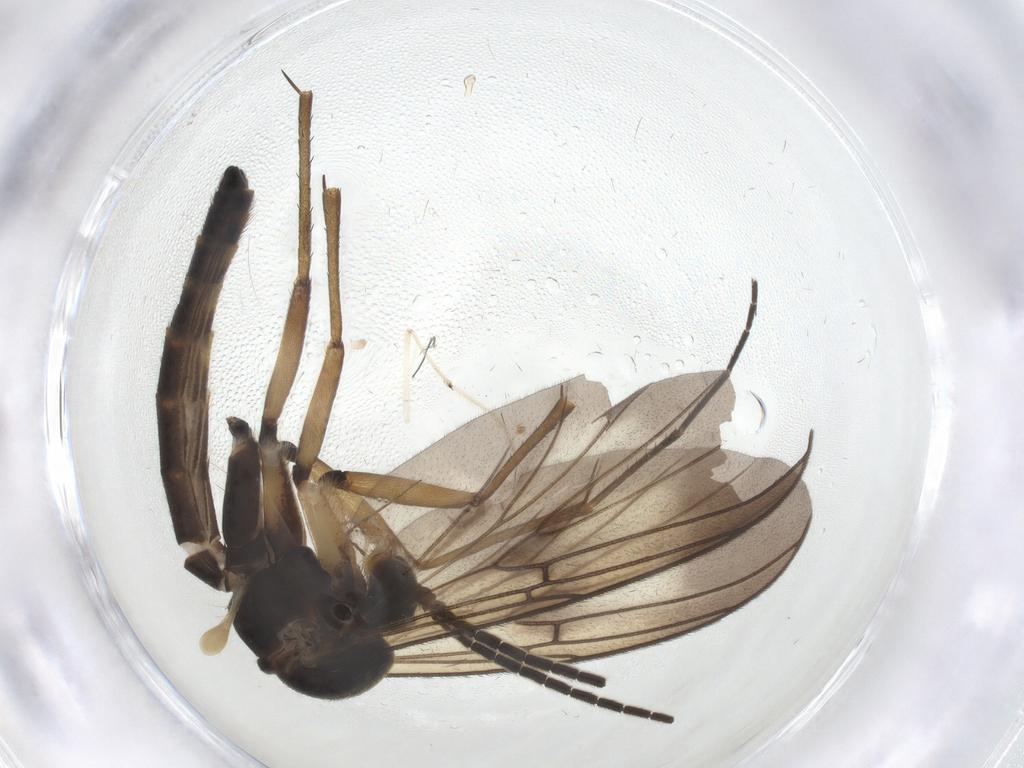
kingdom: Animalia
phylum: Arthropoda
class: Insecta
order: Diptera
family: Mycetophilidae
